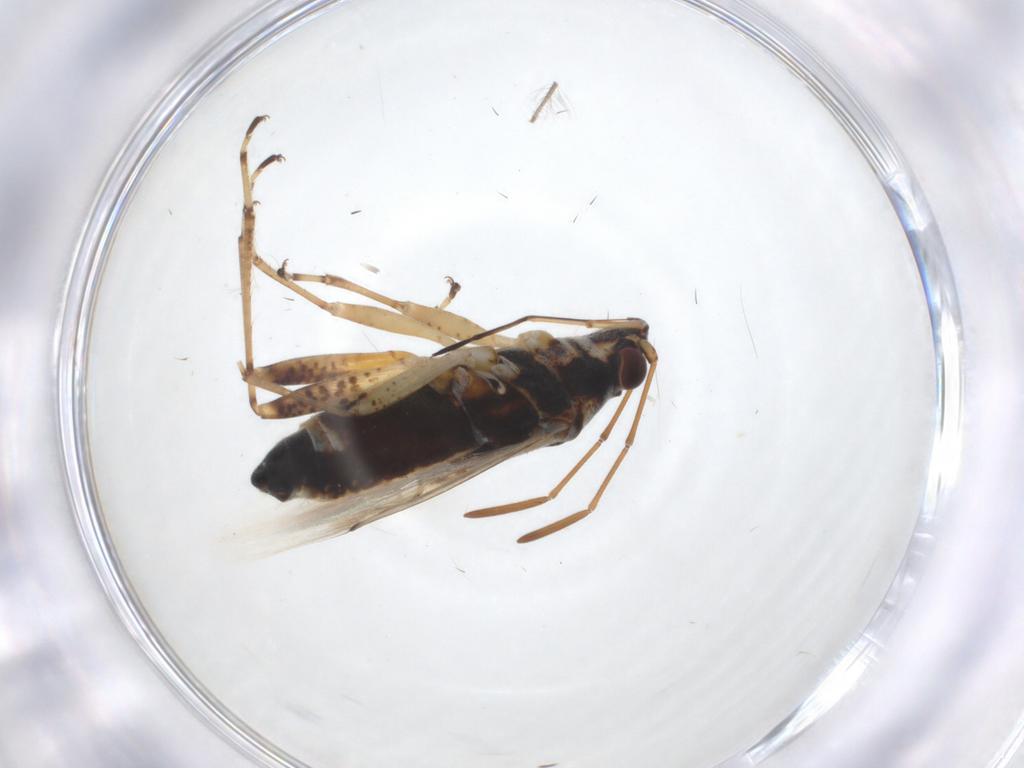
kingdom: Animalia
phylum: Arthropoda
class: Insecta
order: Hemiptera
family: Lygaeidae
